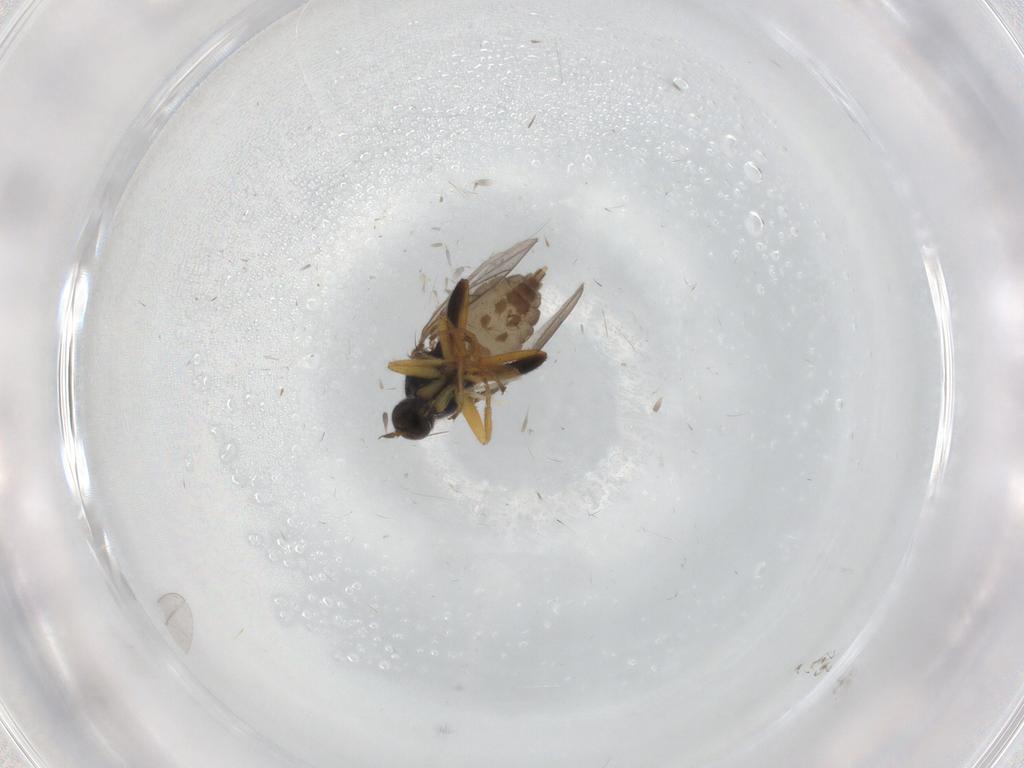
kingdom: Animalia
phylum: Arthropoda
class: Insecta
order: Diptera
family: Hybotidae
